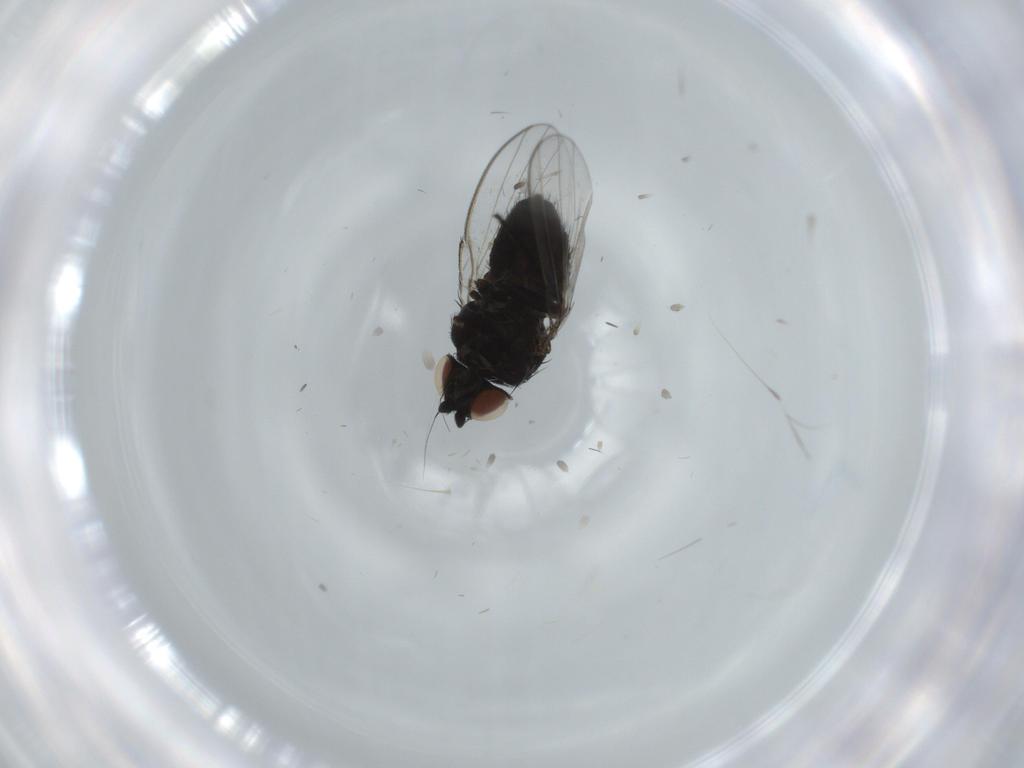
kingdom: Animalia
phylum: Arthropoda
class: Insecta
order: Diptera
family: Milichiidae
